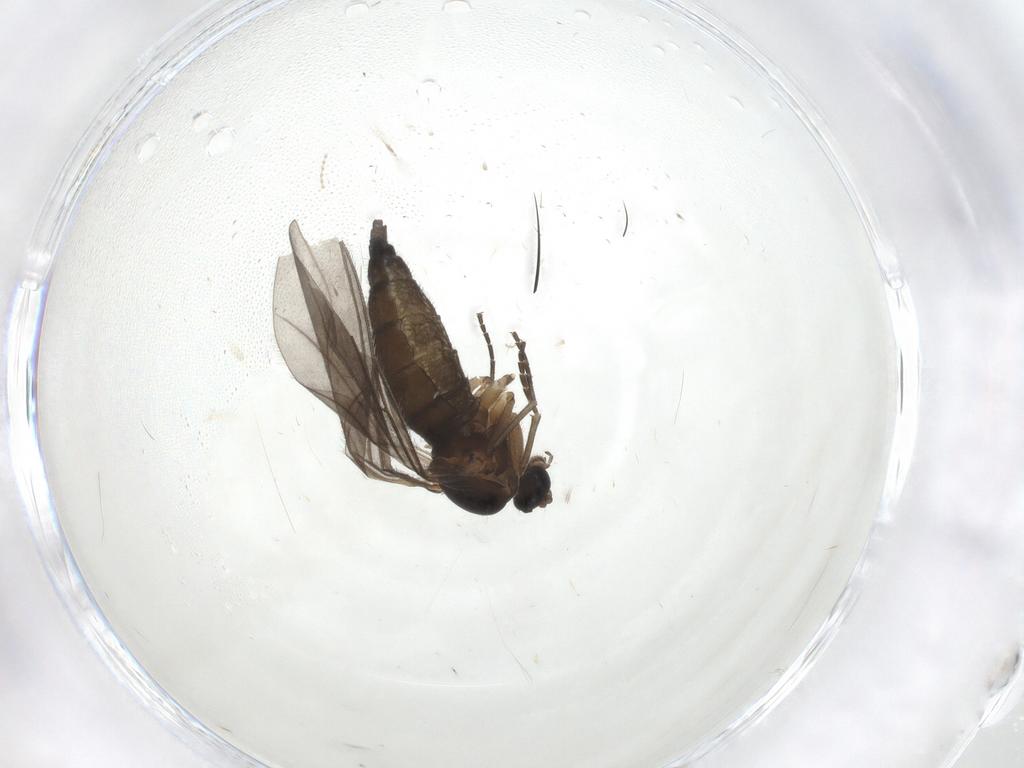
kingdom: Animalia
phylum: Arthropoda
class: Insecta
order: Diptera
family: Sciaridae
